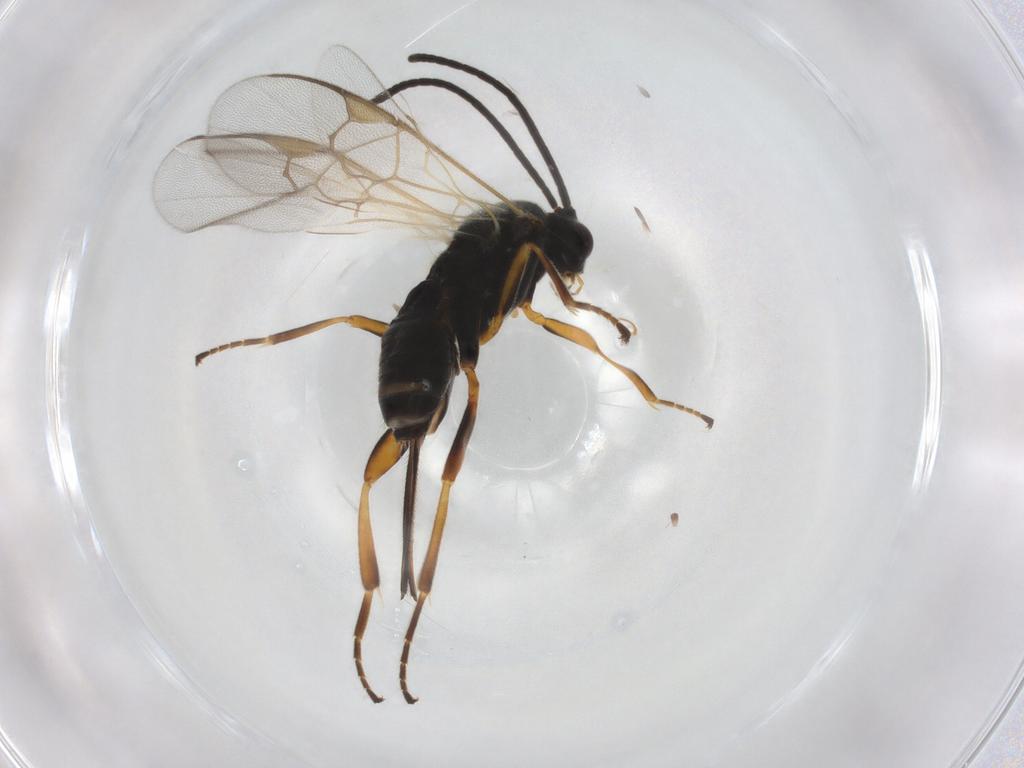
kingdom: Animalia
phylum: Arthropoda
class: Insecta
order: Hymenoptera
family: Braconidae
